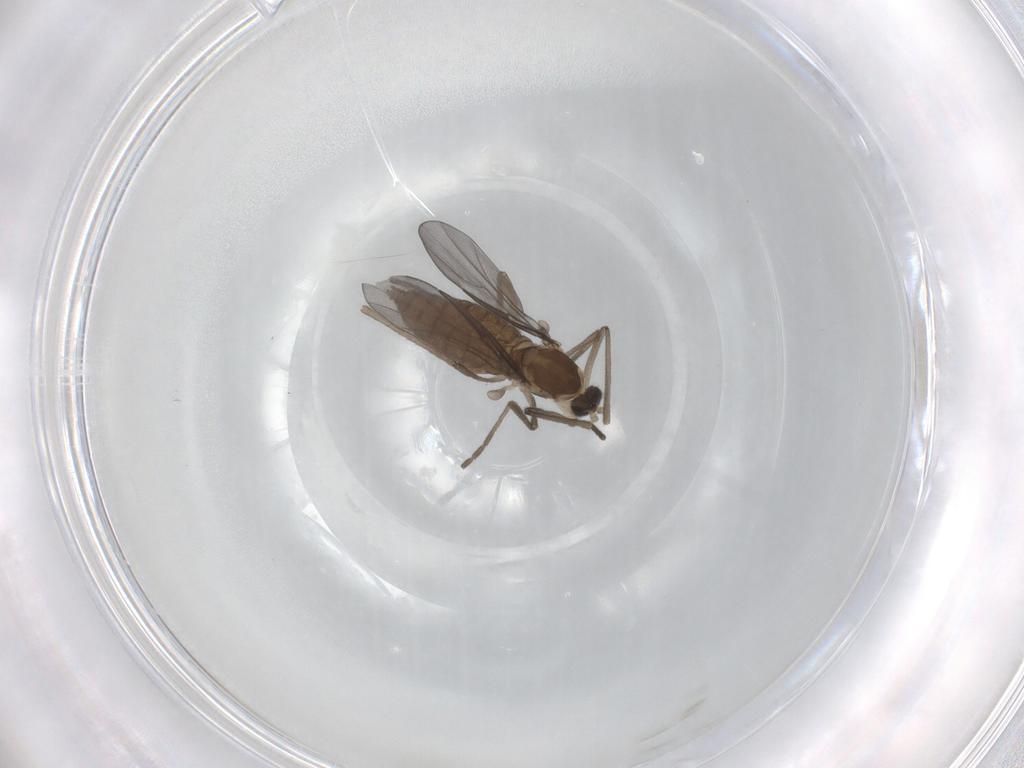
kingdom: Animalia
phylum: Arthropoda
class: Insecta
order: Diptera
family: Cecidomyiidae
